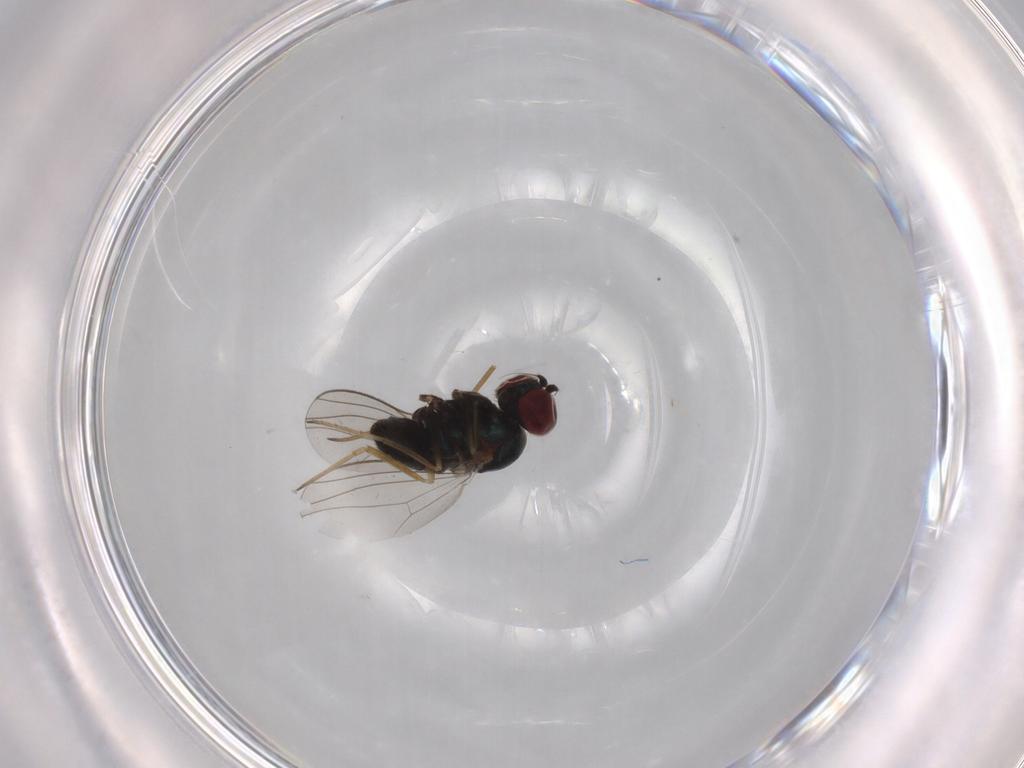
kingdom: Animalia
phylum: Arthropoda
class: Insecta
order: Diptera
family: Dolichopodidae
